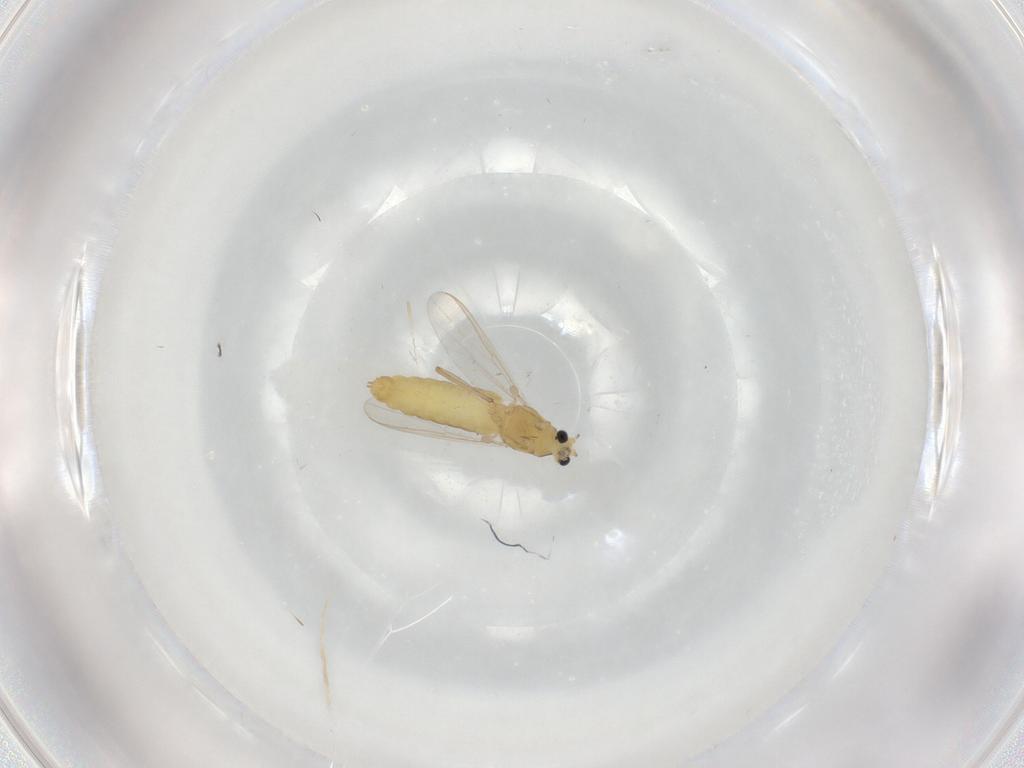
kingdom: Animalia
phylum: Arthropoda
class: Insecta
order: Diptera
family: Chironomidae
